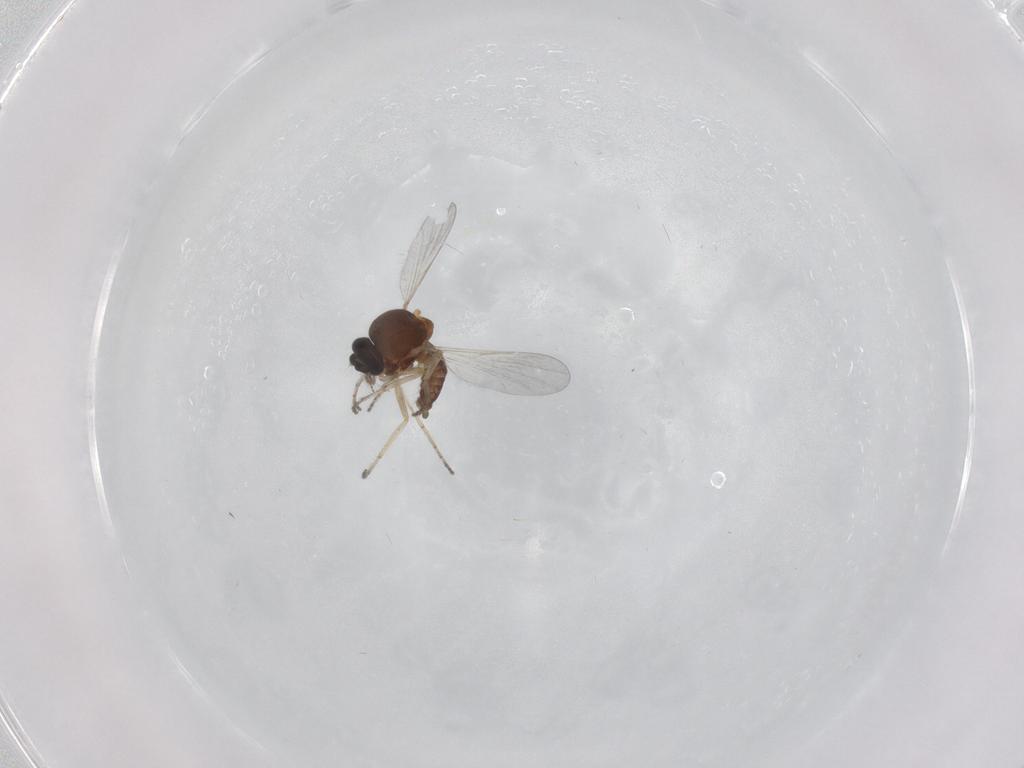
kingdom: Animalia
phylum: Arthropoda
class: Insecta
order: Diptera
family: Ceratopogonidae
